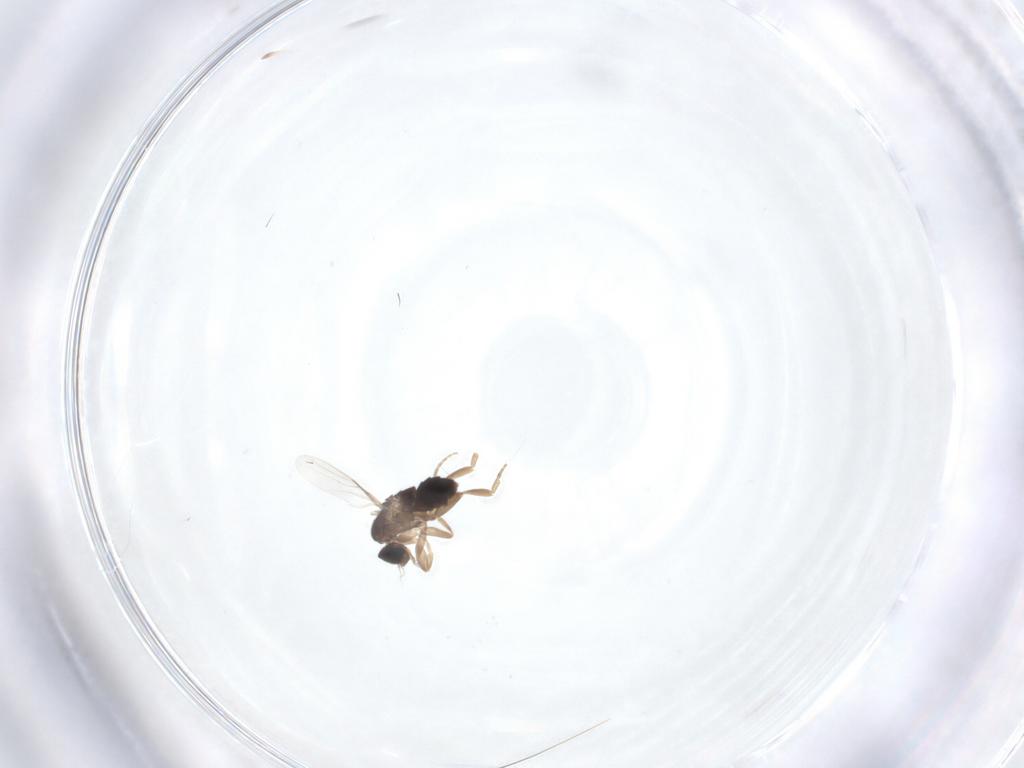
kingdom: Animalia
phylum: Arthropoda
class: Insecta
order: Diptera
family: Phoridae
